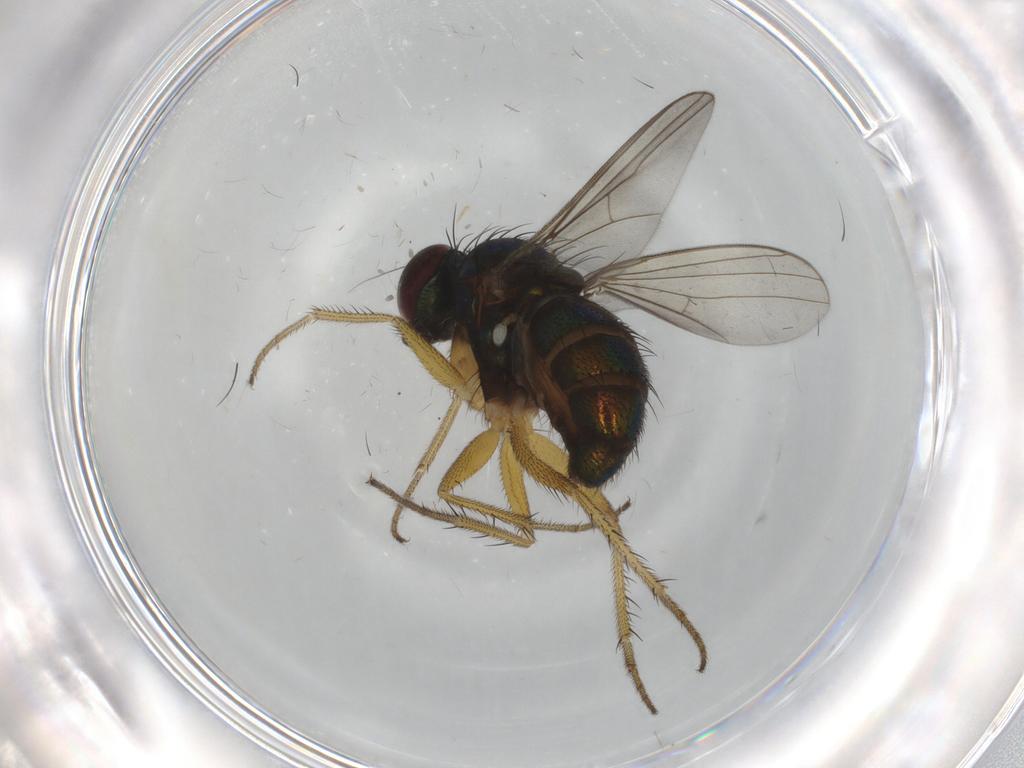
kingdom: Animalia
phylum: Arthropoda
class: Insecta
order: Diptera
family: Dolichopodidae
